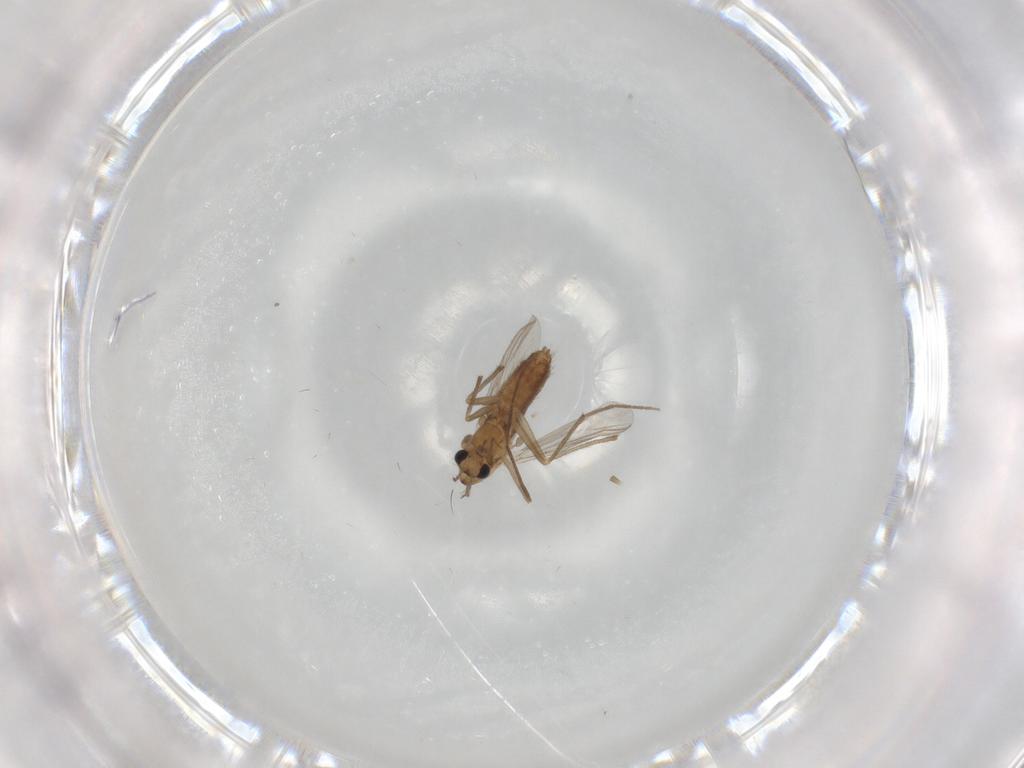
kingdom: Animalia
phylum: Arthropoda
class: Insecta
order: Diptera
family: Chironomidae
